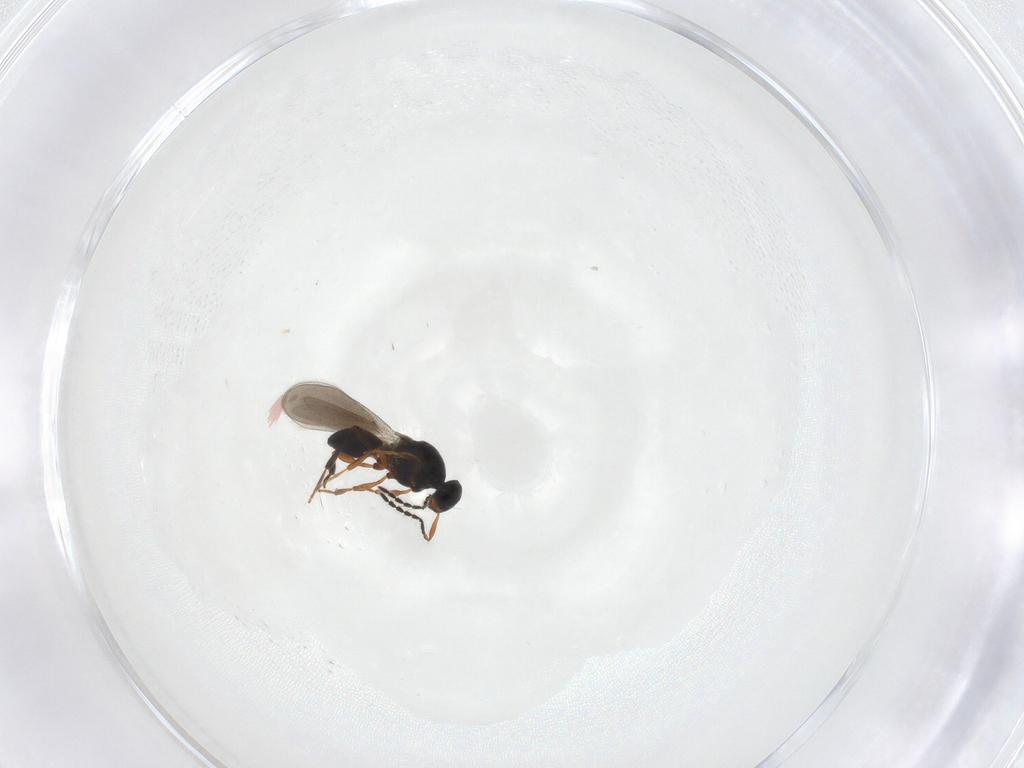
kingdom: Animalia
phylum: Arthropoda
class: Insecta
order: Hymenoptera
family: Platygastridae
